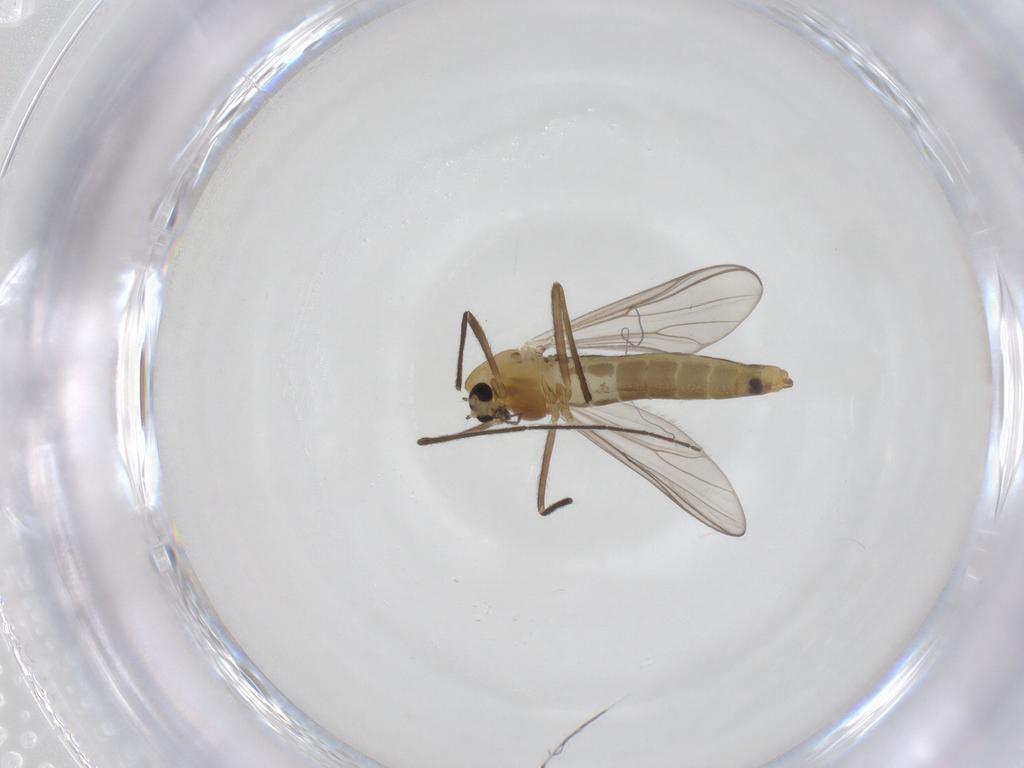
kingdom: Animalia
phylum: Arthropoda
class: Insecta
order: Diptera
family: Chironomidae
